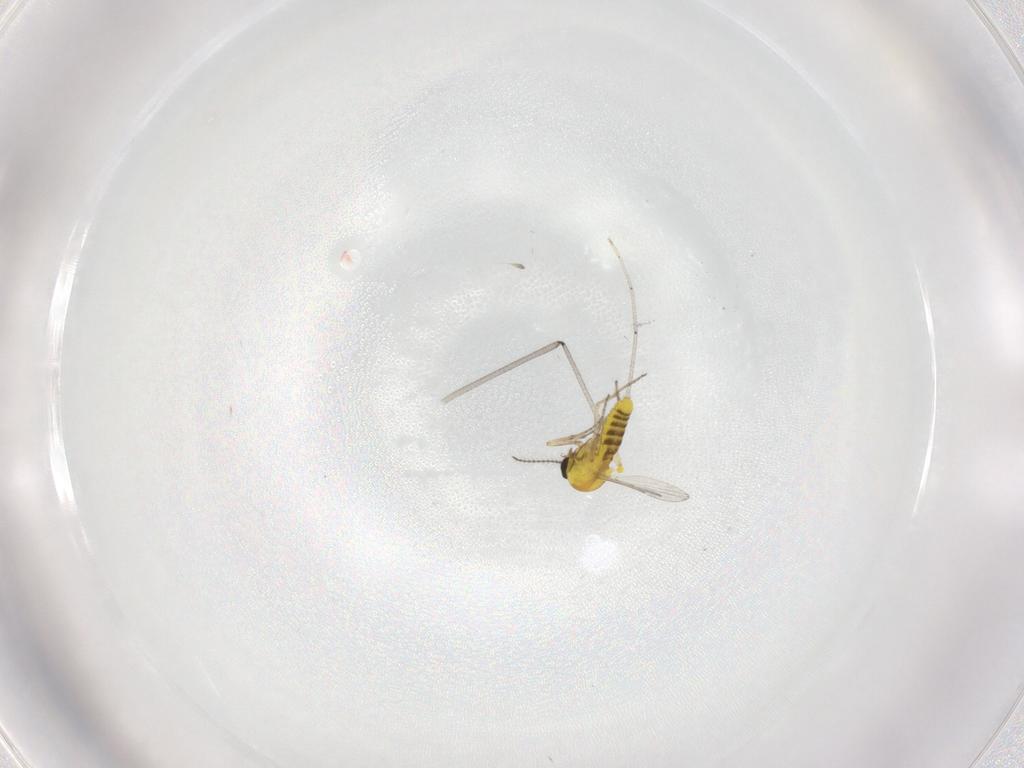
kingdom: Animalia
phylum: Arthropoda
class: Insecta
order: Diptera
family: Ceratopogonidae
